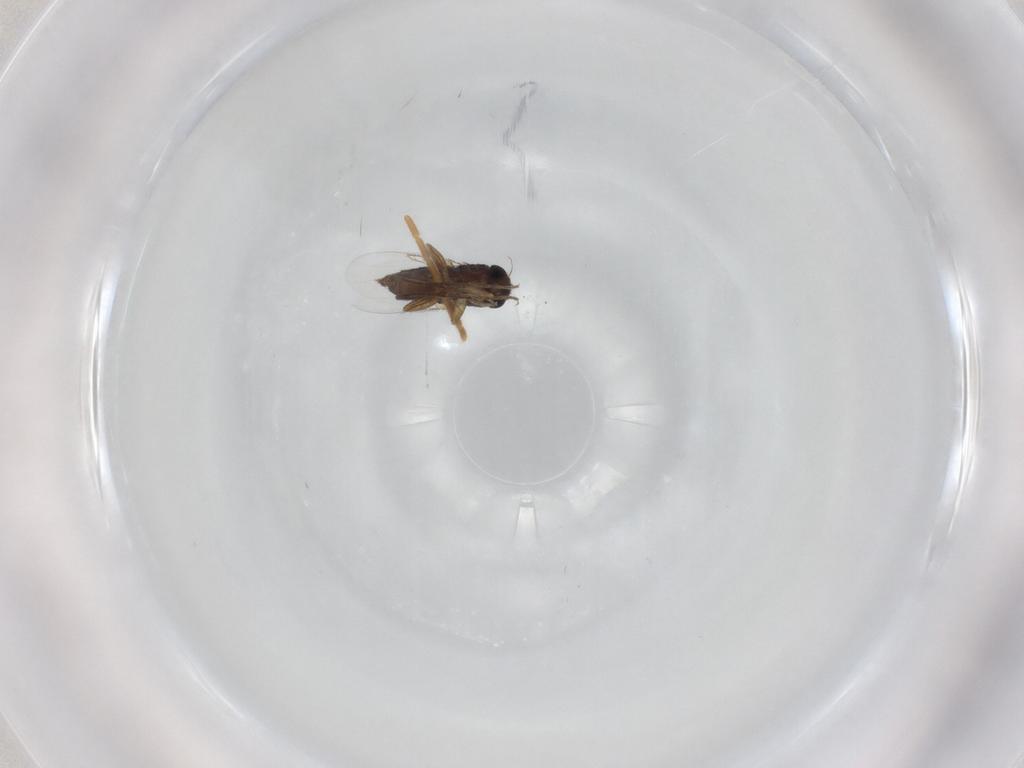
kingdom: Animalia
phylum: Arthropoda
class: Insecta
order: Diptera
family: Phoridae
